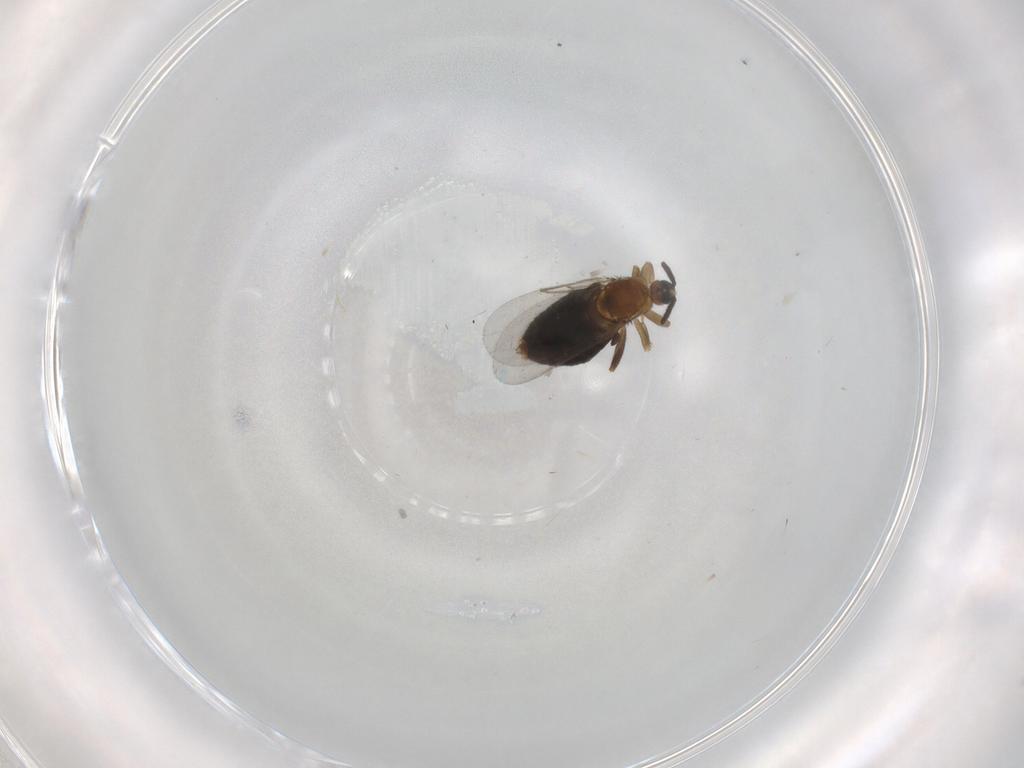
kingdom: Animalia
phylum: Arthropoda
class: Insecta
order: Diptera
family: Scatopsidae
